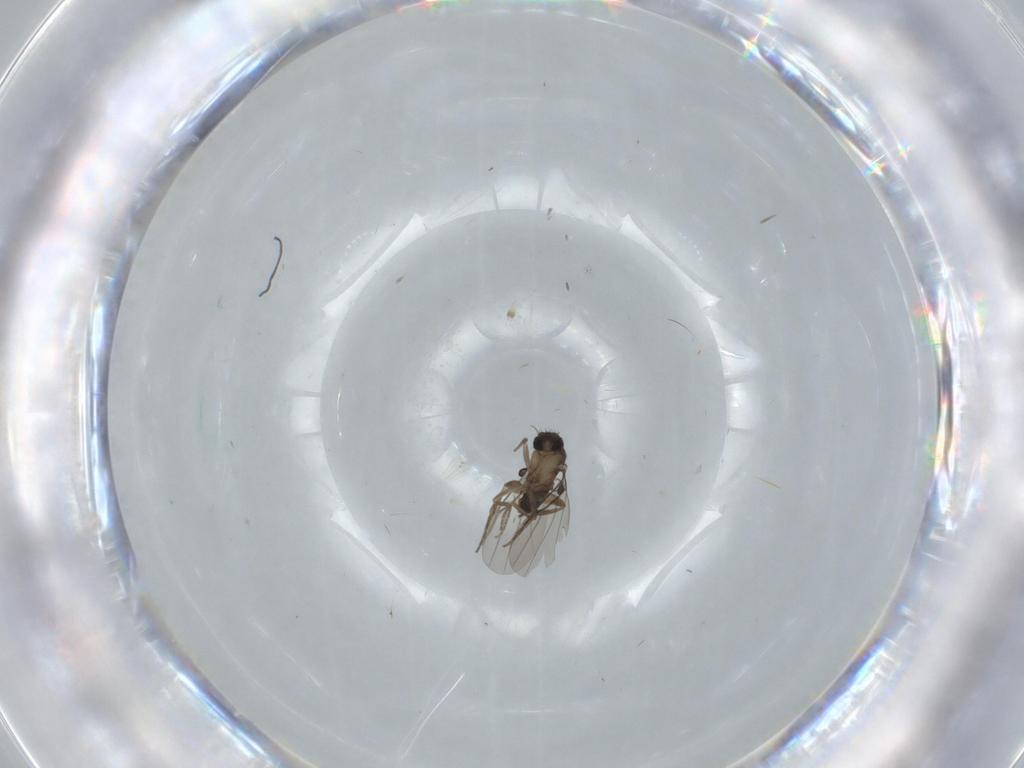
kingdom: Animalia
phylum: Arthropoda
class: Insecta
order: Diptera
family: Phoridae
